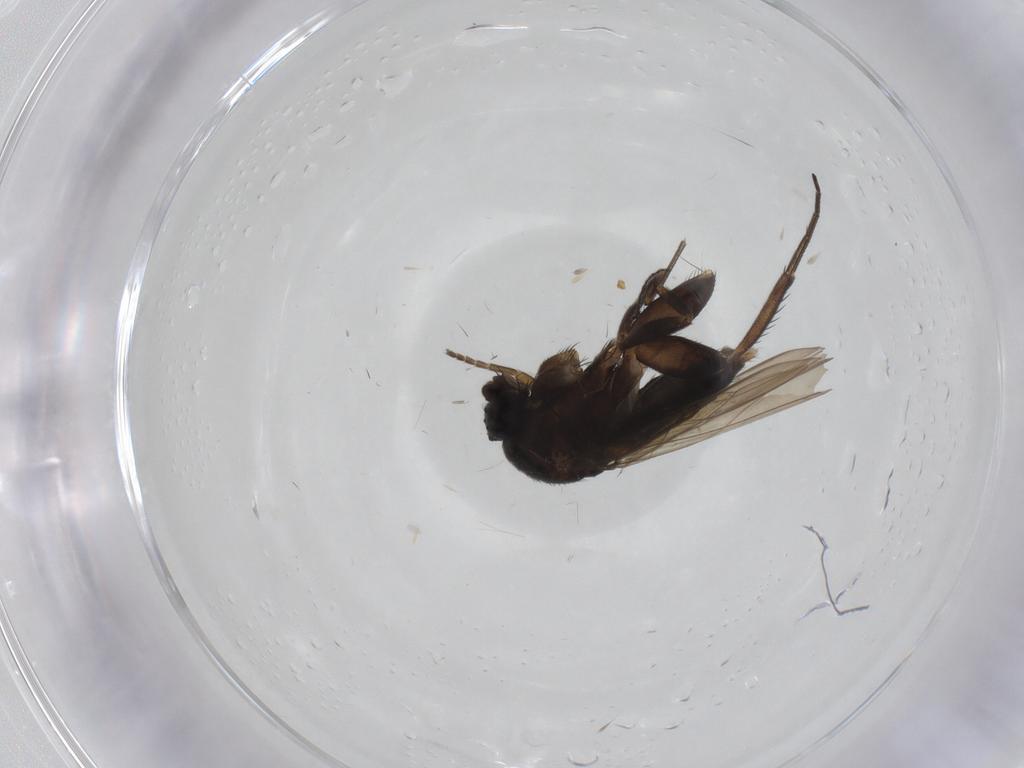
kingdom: Animalia
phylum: Arthropoda
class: Insecta
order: Diptera
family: Phoridae
